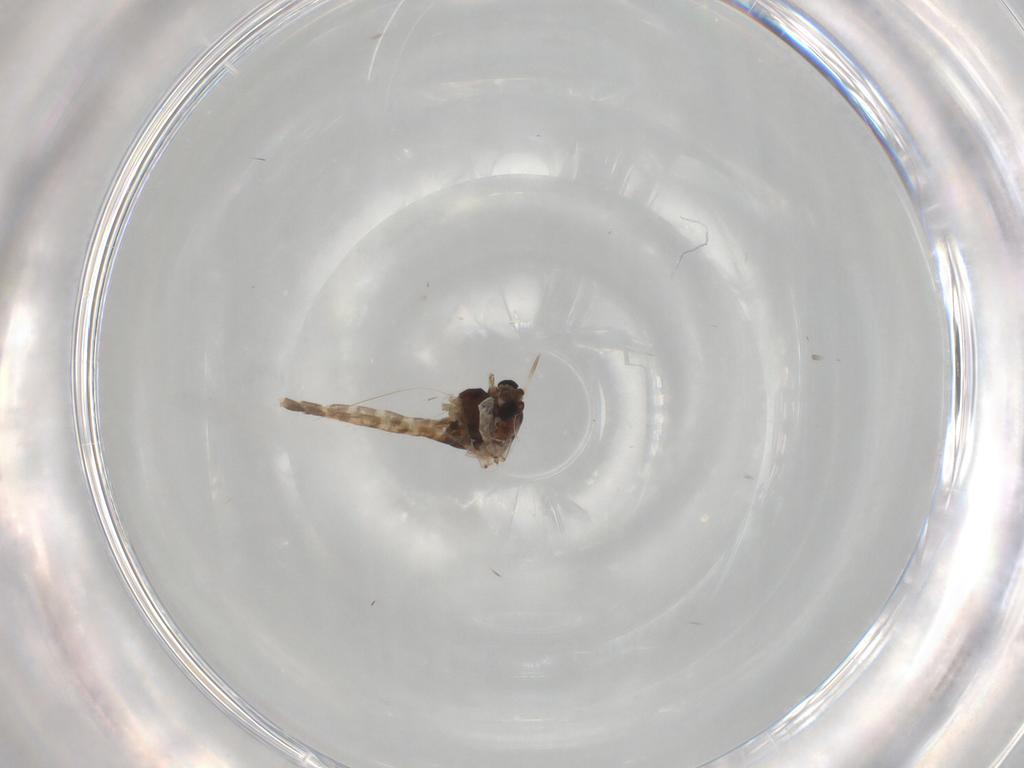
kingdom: Animalia
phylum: Arthropoda
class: Insecta
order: Diptera
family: Chironomidae
